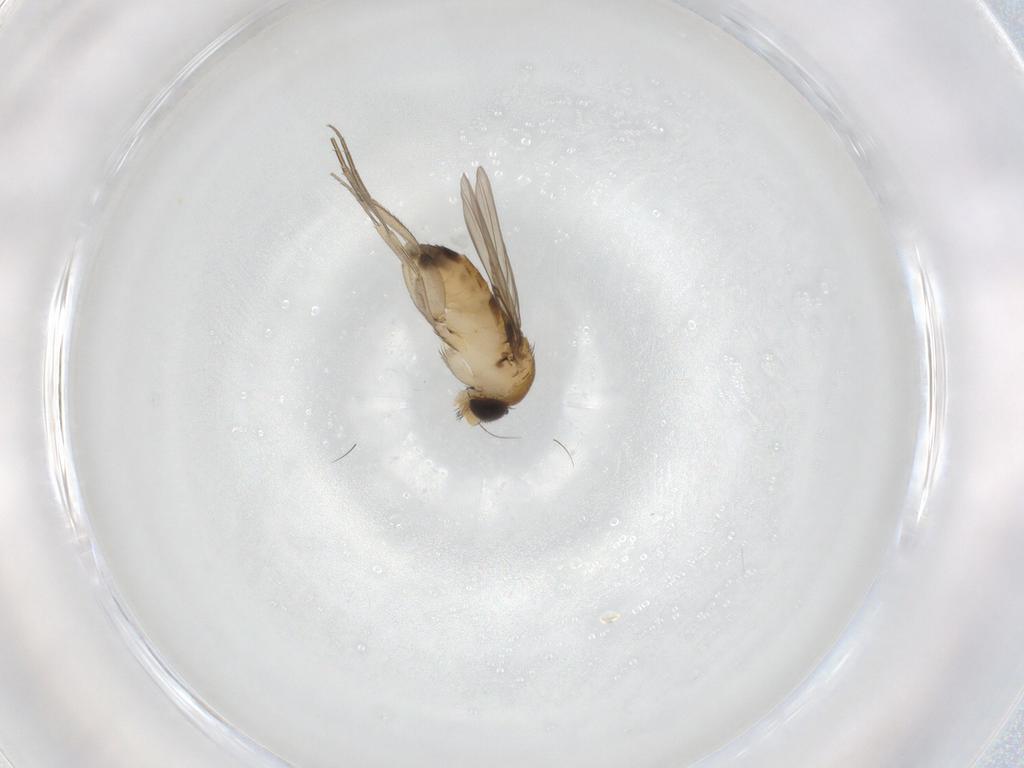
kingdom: Animalia
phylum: Arthropoda
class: Insecta
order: Diptera
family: Phoridae
